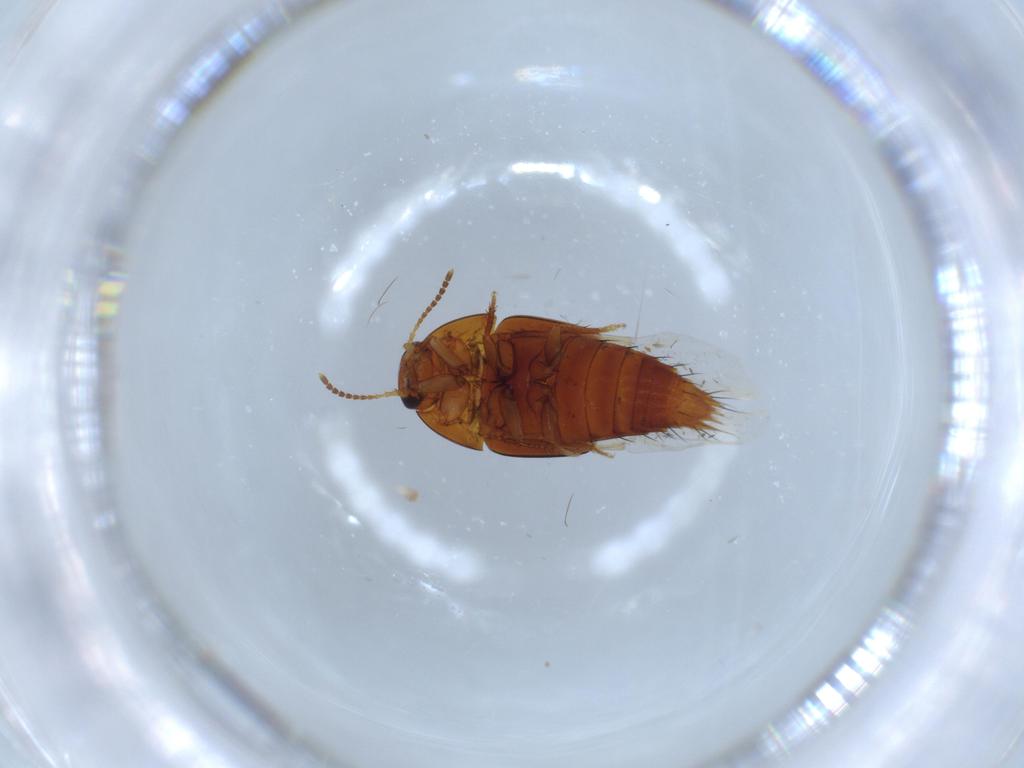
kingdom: Animalia
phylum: Arthropoda
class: Insecta
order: Coleoptera
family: Staphylinidae
